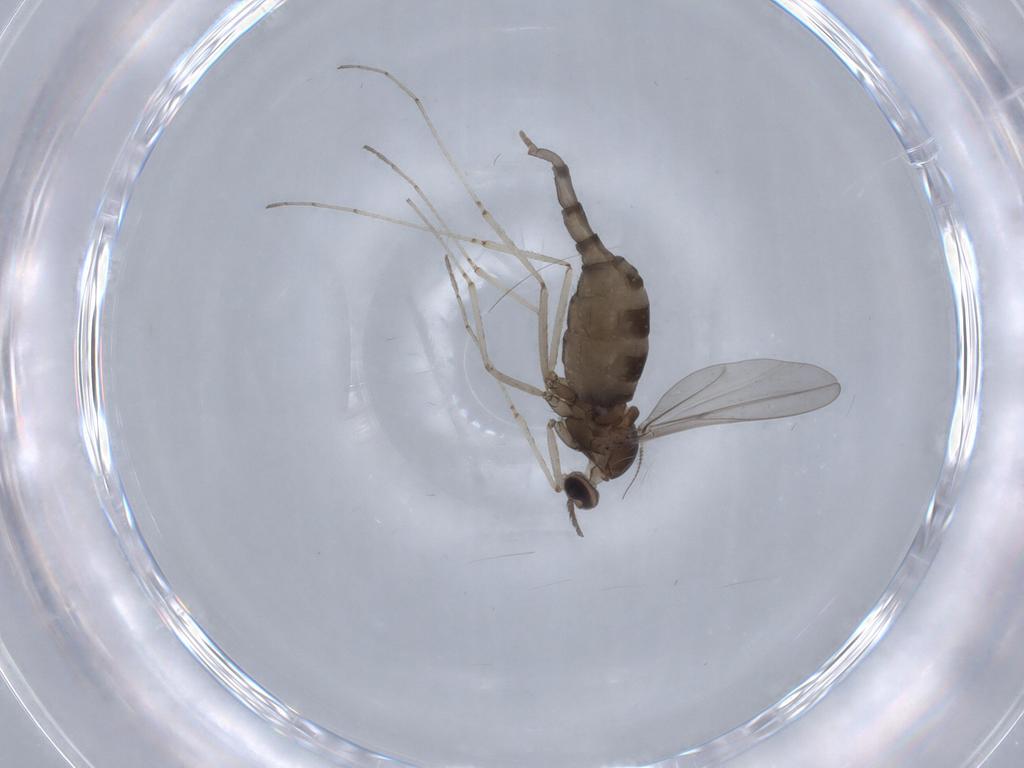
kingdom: Animalia
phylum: Arthropoda
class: Insecta
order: Diptera
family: Cecidomyiidae
